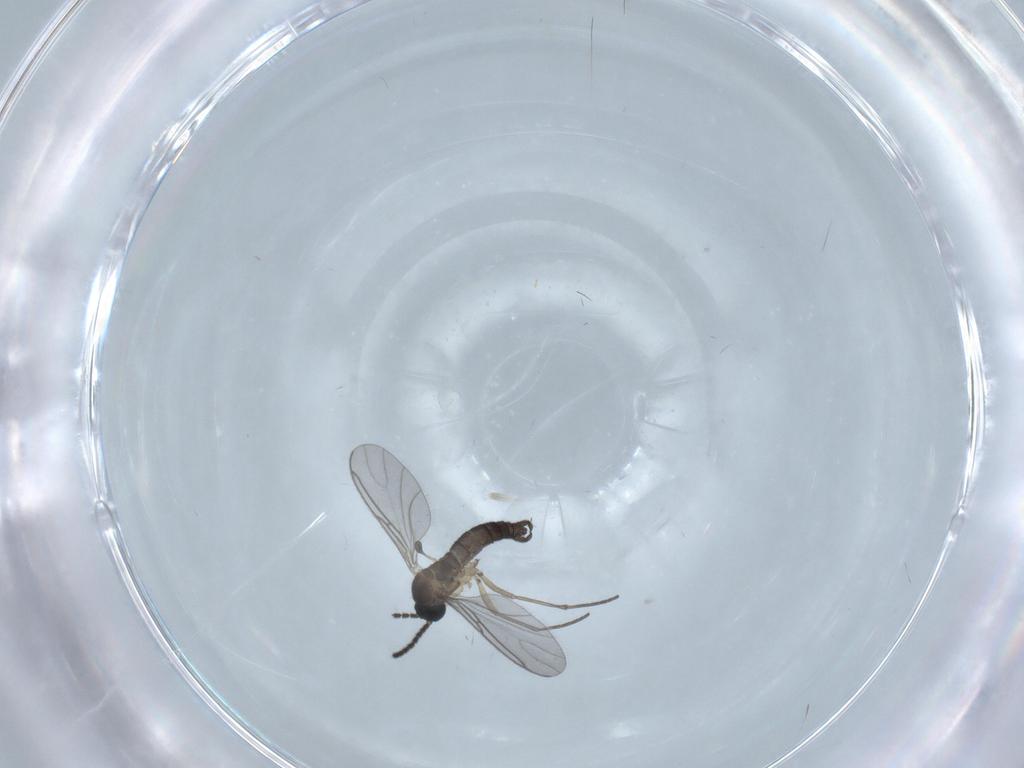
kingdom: Animalia
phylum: Arthropoda
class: Insecta
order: Diptera
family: Sciaridae
